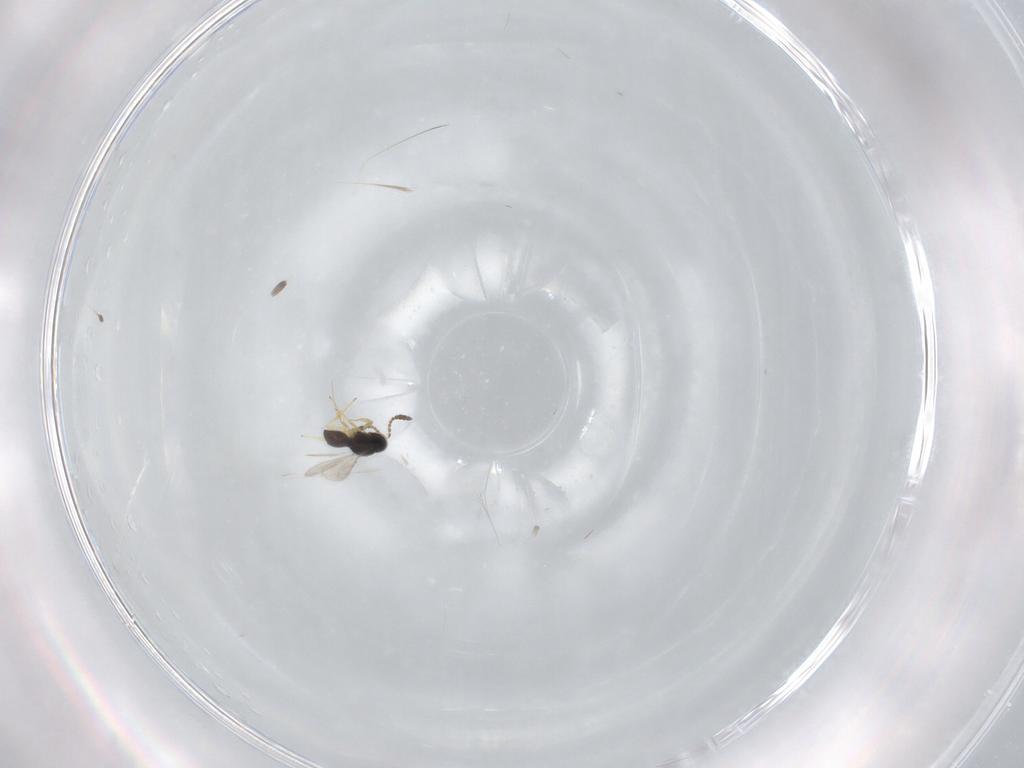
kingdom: Animalia
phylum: Arthropoda
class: Insecta
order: Hymenoptera
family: Scelionidae
